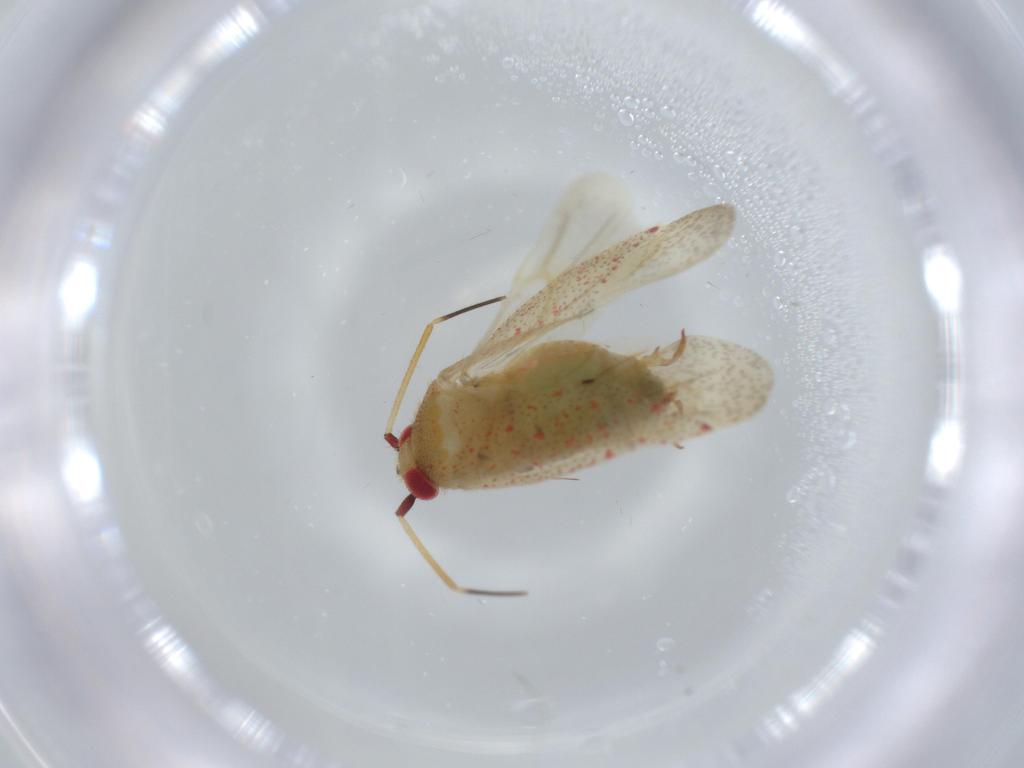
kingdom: Animalia
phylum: Arthropoda
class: Insecta
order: Hemiptera
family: Miridae
